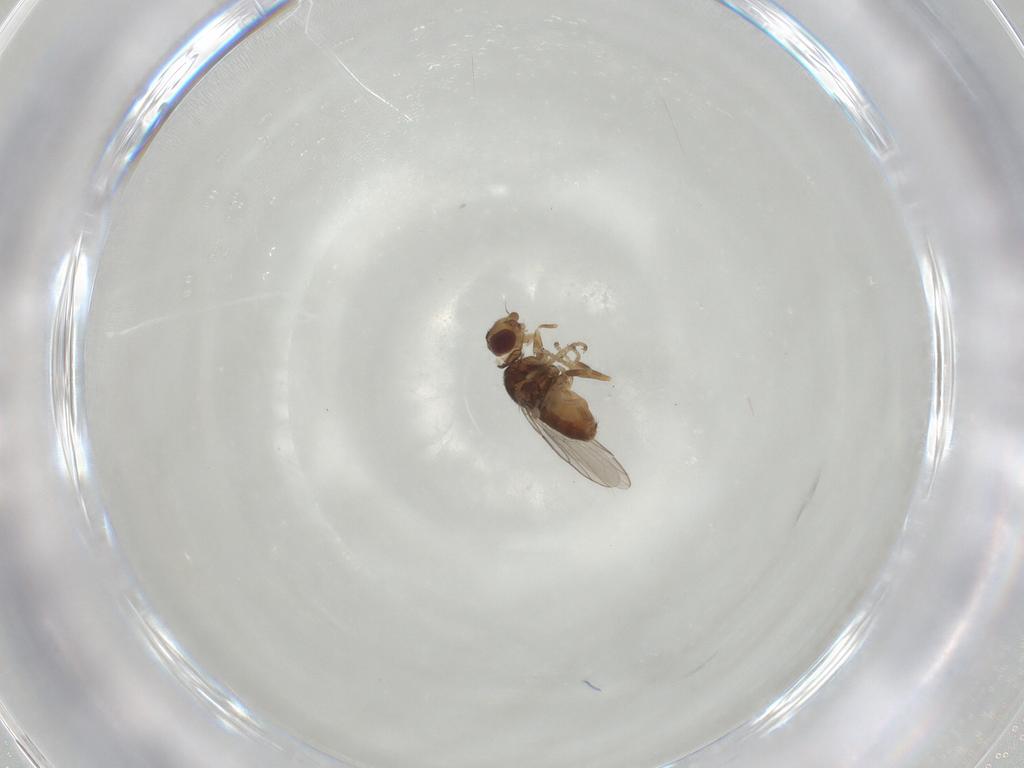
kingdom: Animalia
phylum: Arthropoda
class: Insecta
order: Diptera
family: Chloropidae
